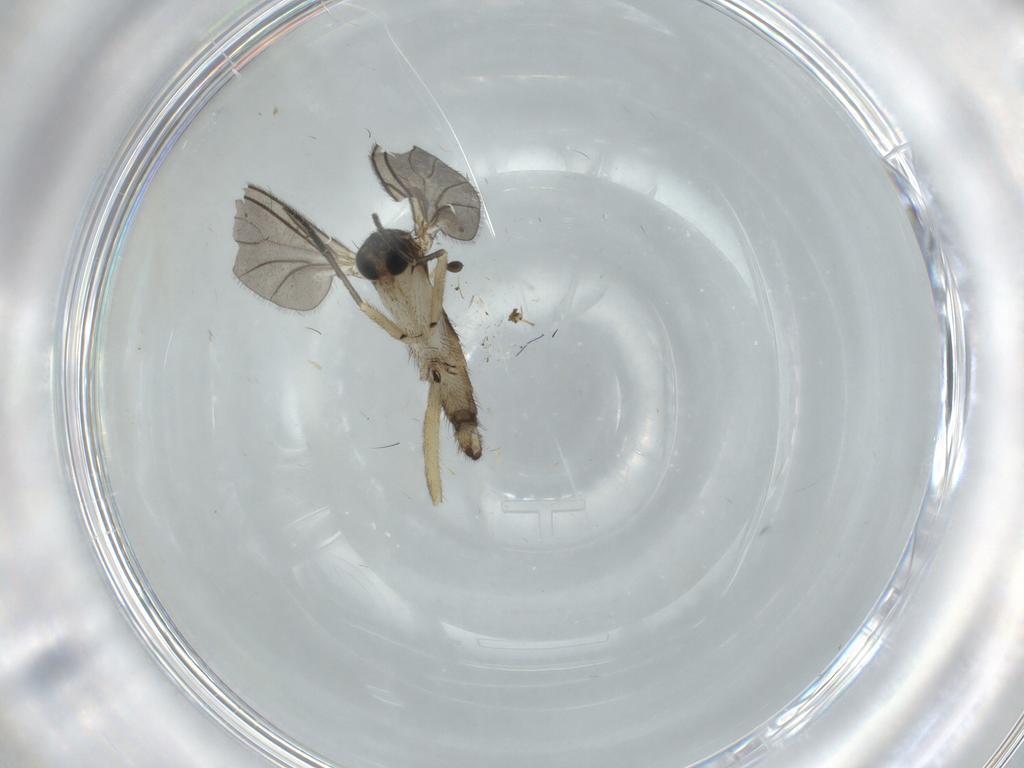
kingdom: Animalia
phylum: Arthropoda
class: Insecta
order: Diptera
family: Sciaridae
